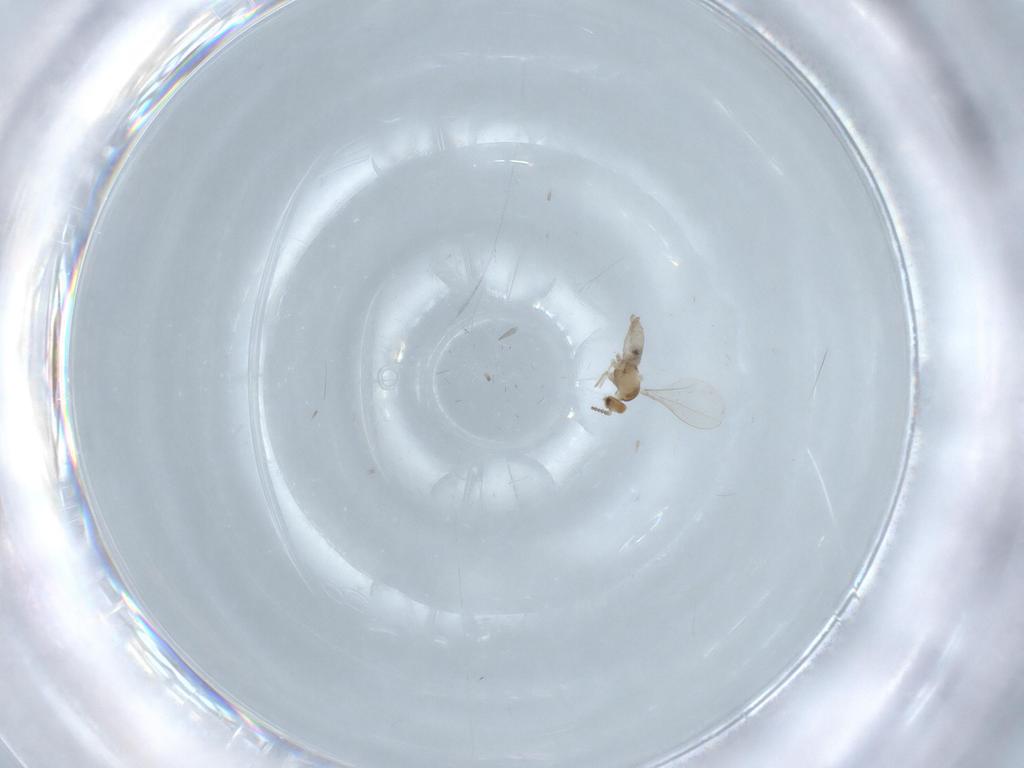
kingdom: Animalia
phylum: Arthropoda
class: Insecta
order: Diptera
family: Cecidomyiidae
